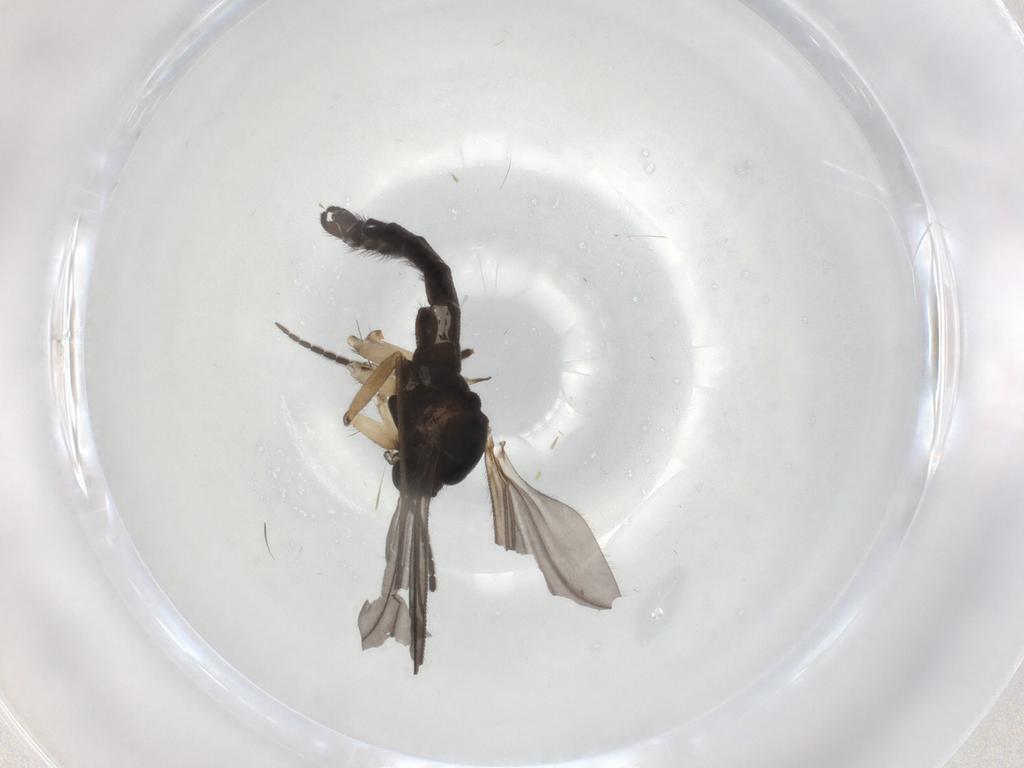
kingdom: Animalia
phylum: Arthropoda
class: Insecta
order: Diptera
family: Sciaridae
